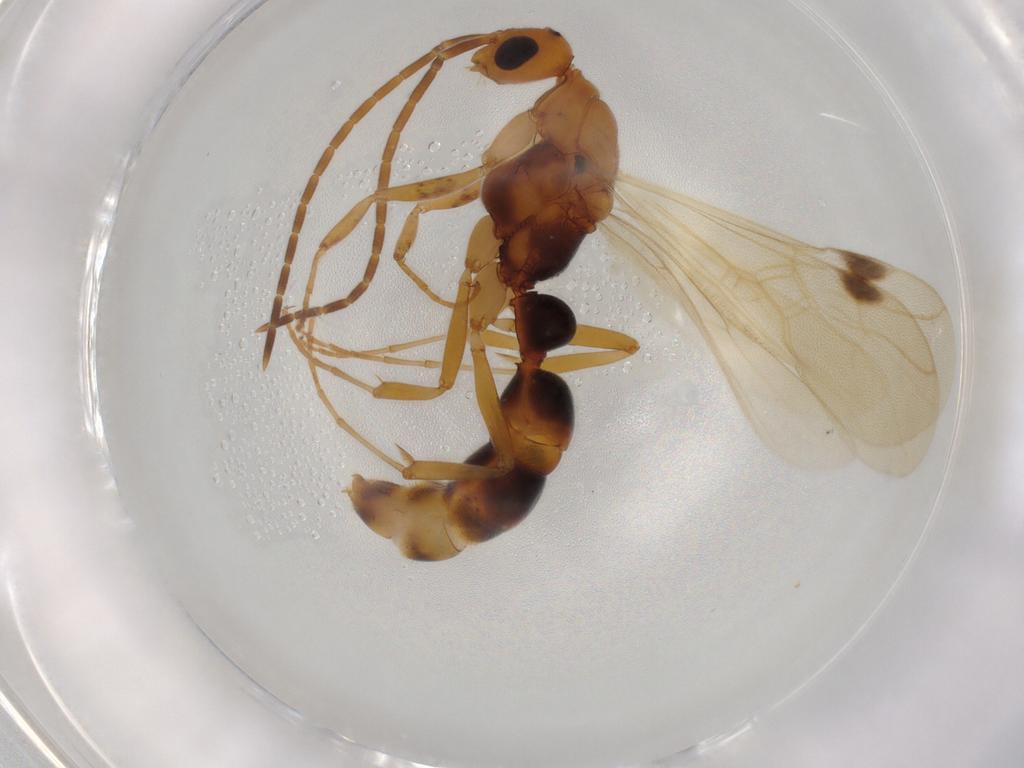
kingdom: Animalia
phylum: Arthropoda
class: Insecta
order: Hymenoptera
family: Formicidae
